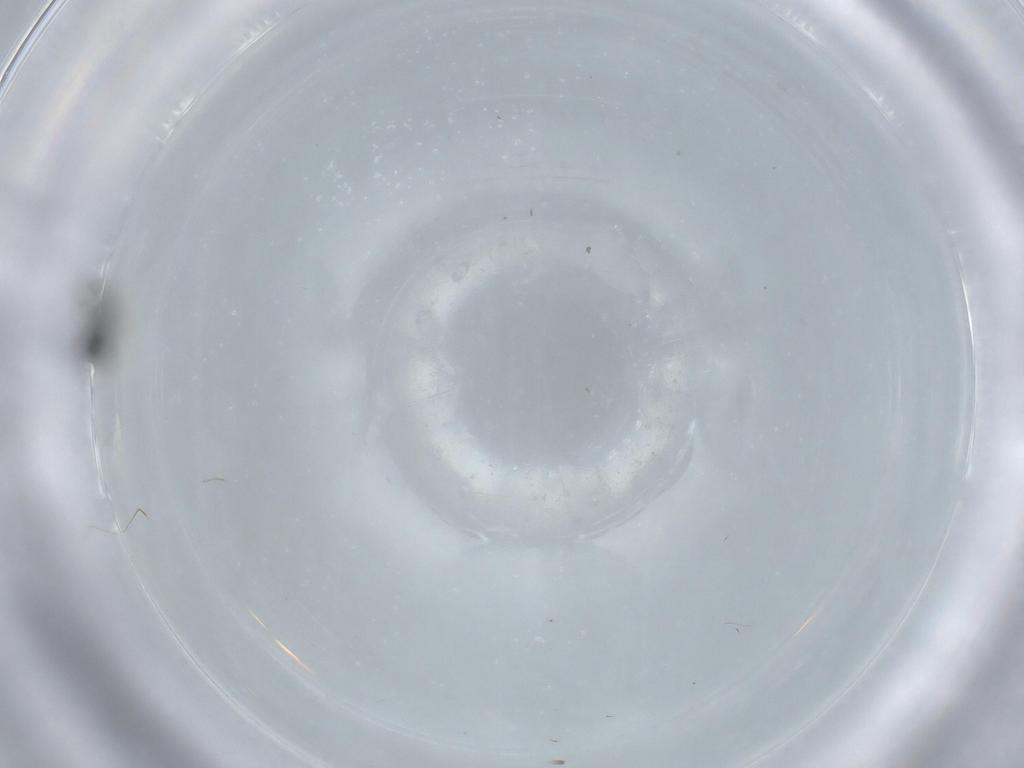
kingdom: Animalia
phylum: Arthropoda
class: Insecta
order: Diptera
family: Psychodidae
